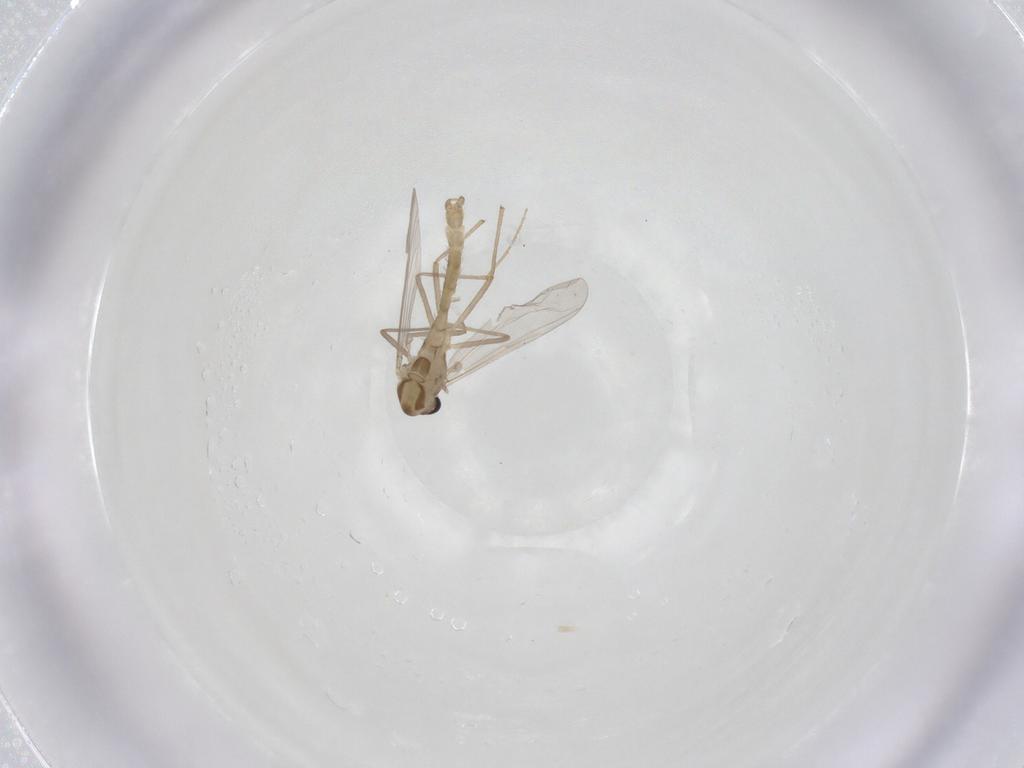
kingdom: Animalia
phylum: Arthropoda
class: Insecta
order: Diptera
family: Chironomidae
